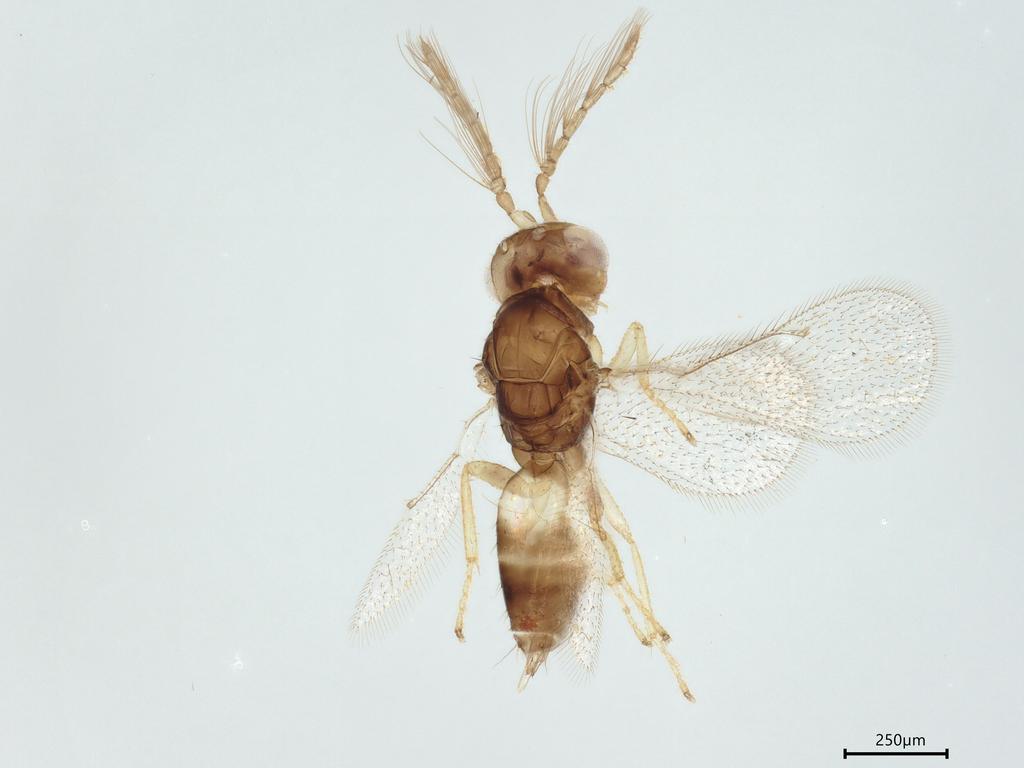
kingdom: Animalia
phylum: Arthropoda
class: Insecta
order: Hymenoptera
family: Eulophidae
